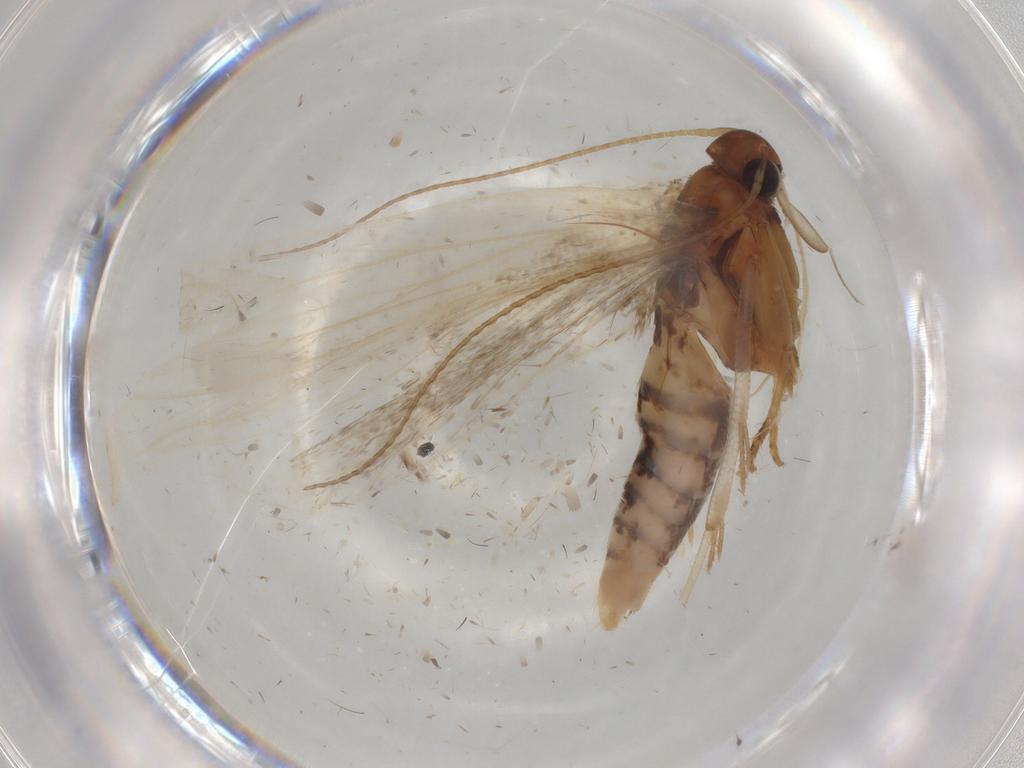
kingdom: Animalia
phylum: Arthropoda
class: Insecta
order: Lepidoptera
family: Gelechiidae
